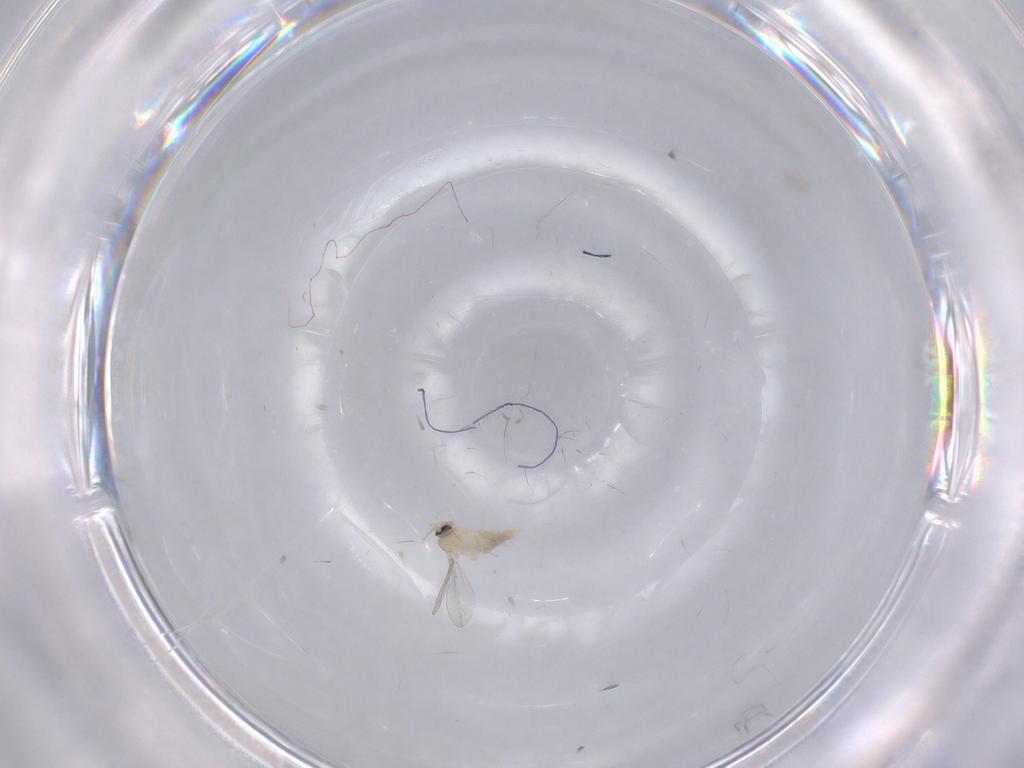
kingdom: Animalia
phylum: Arthropoda
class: Insecta
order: Diptera
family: Cecidomyiidae
